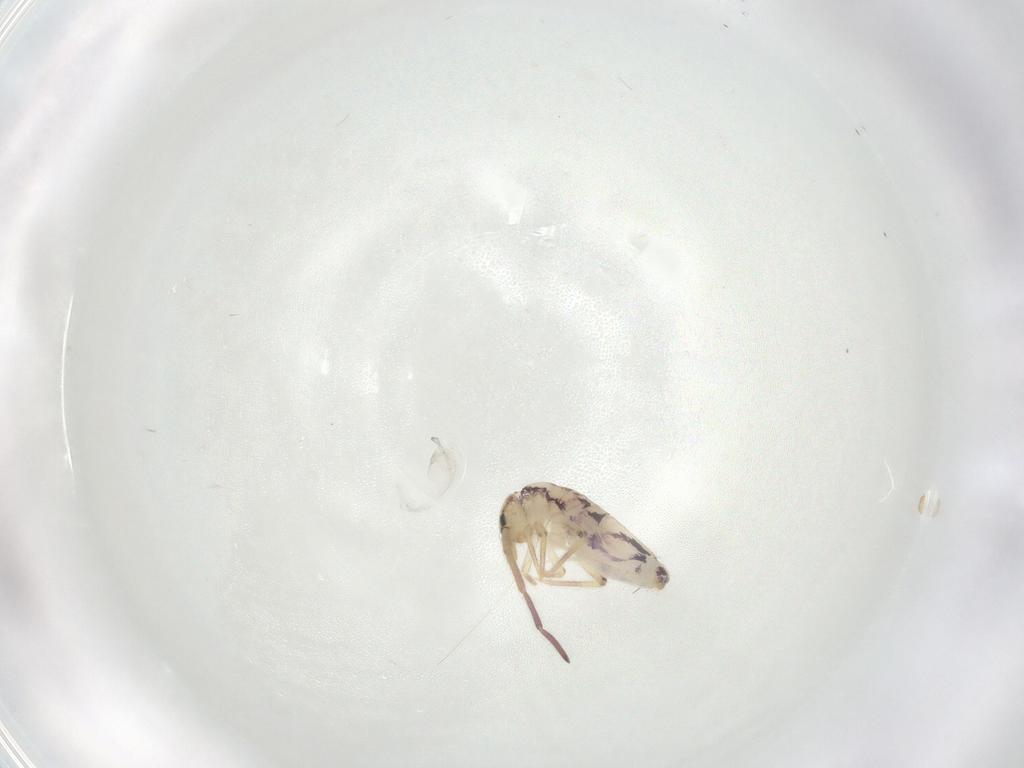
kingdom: Animalia
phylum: Arthropoda
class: Collembola
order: Entomobryomorpha
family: Entomobryidae
